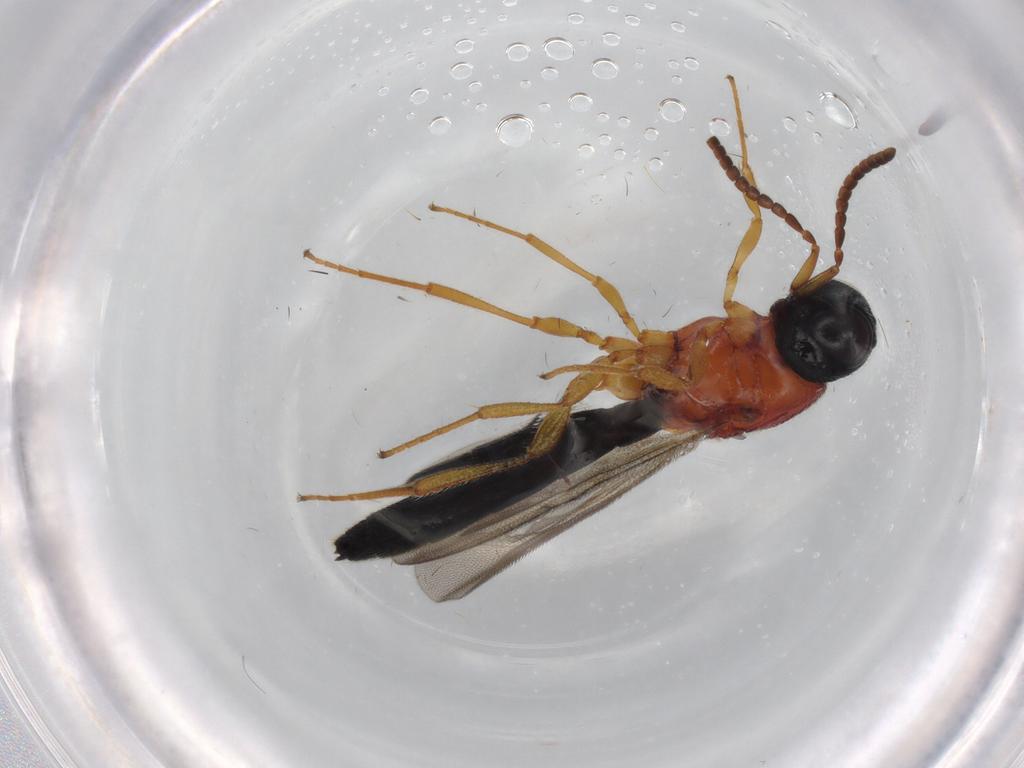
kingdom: Animalia
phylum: Arthropoda
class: Insecta
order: Hymenoptera
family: Scelionidae
